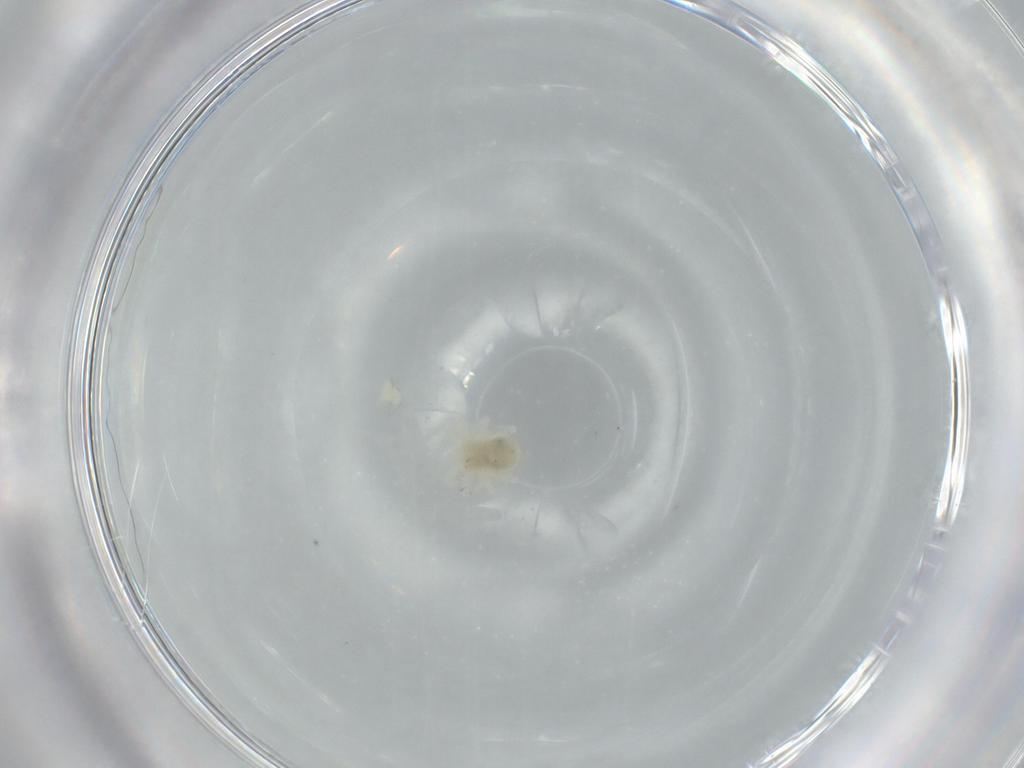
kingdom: Animalia
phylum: Arthropoda
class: Arachnida
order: Trombidiformes
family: Anystidae
